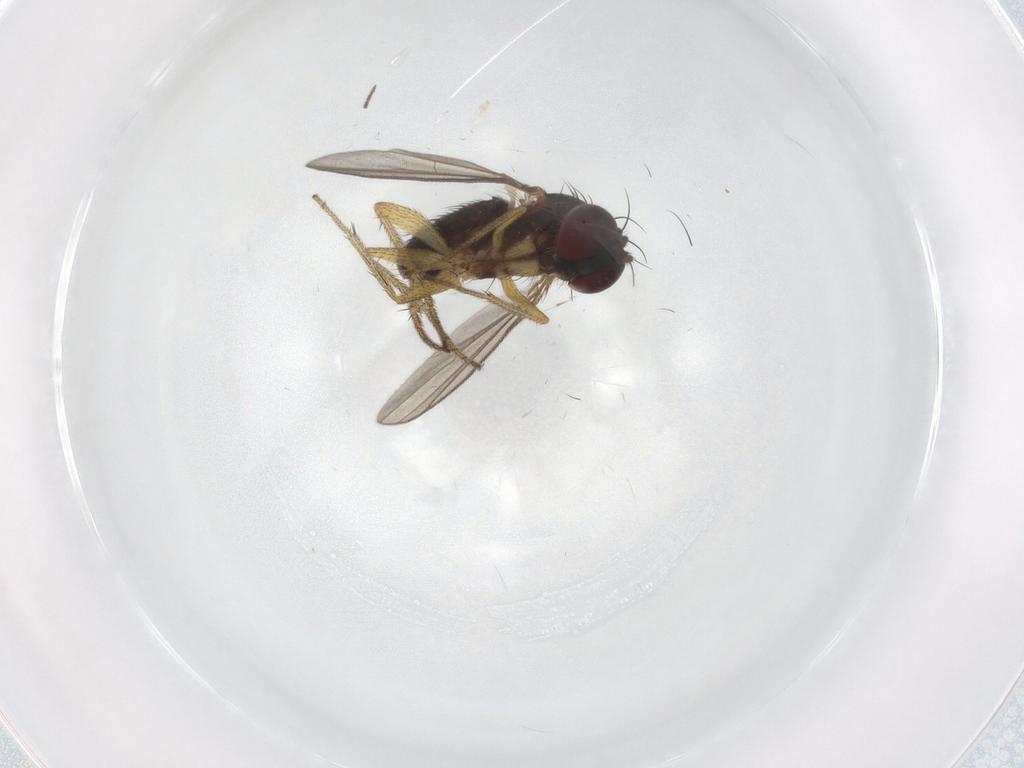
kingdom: Animalia
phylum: Arthropoda
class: Insecta
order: Diptera
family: Dolichopodidae
